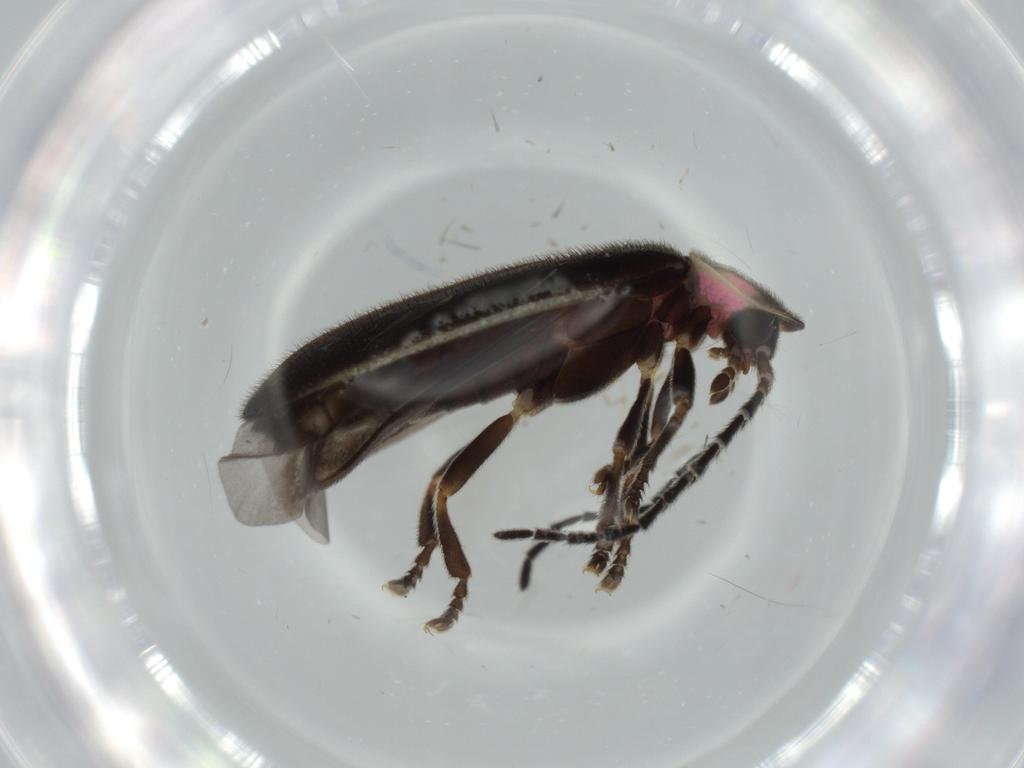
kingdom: Animalia
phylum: Arthropoda
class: Insecta
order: Coleoptera
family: Lampyridae
